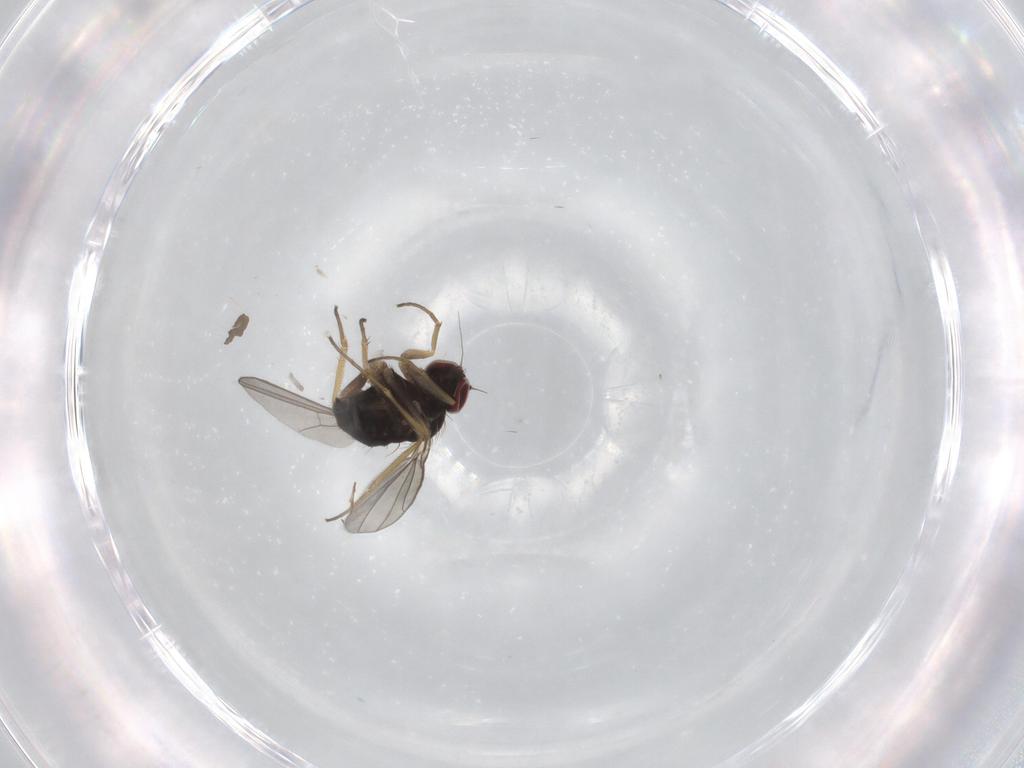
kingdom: Animalia
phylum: Arthropoda
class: Insecta
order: Diptera
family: Dolichopodidae
